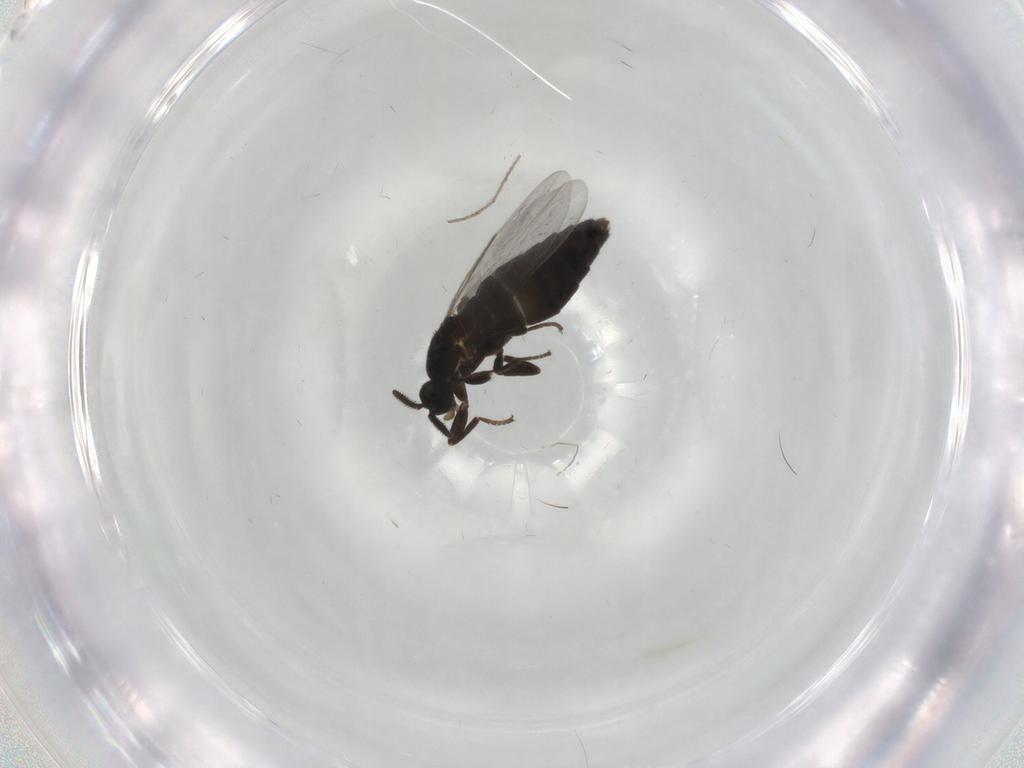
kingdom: Animalia
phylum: Arthropoda
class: Insecta
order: Diptera
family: Scatopsidae
